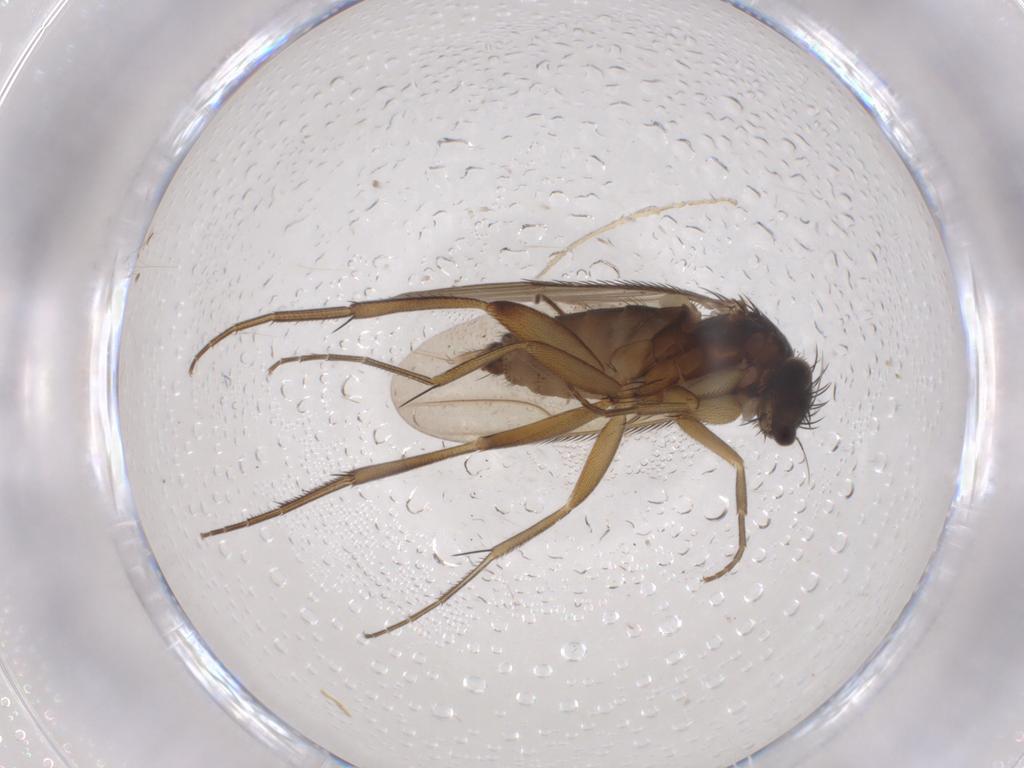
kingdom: Animalia
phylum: Arthropoda
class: Insecta
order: Diptera
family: Phoridae
